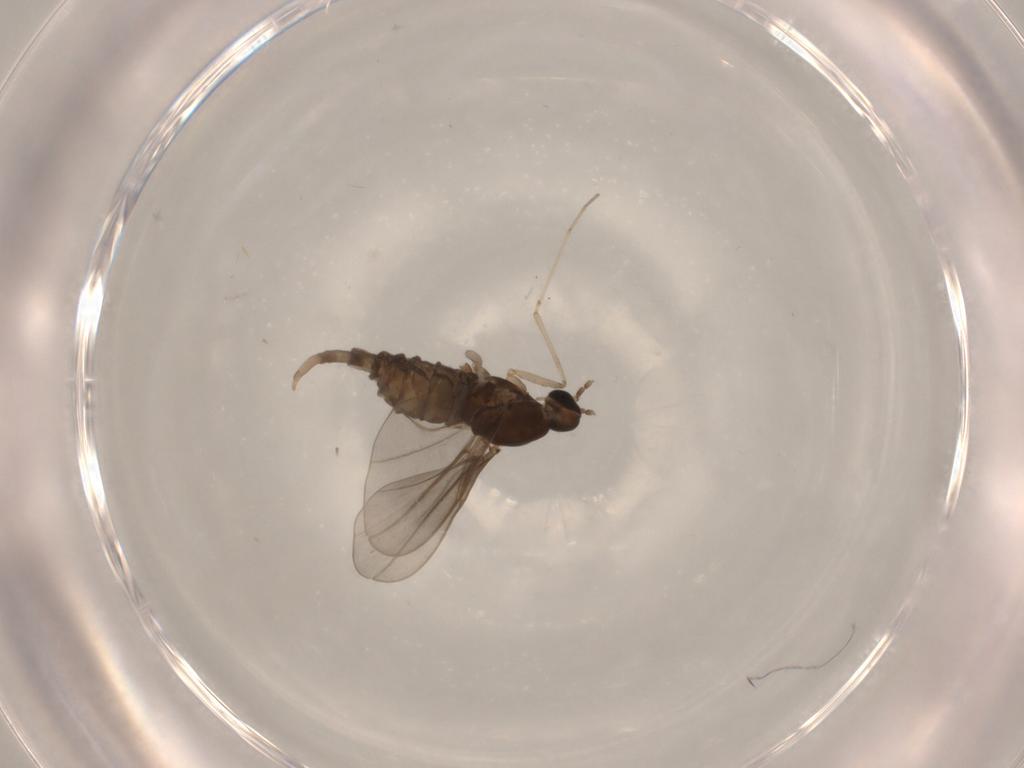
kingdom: Animalia
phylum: Arthropoda
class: Insecta
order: Diptera
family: Cecidomyiidae
